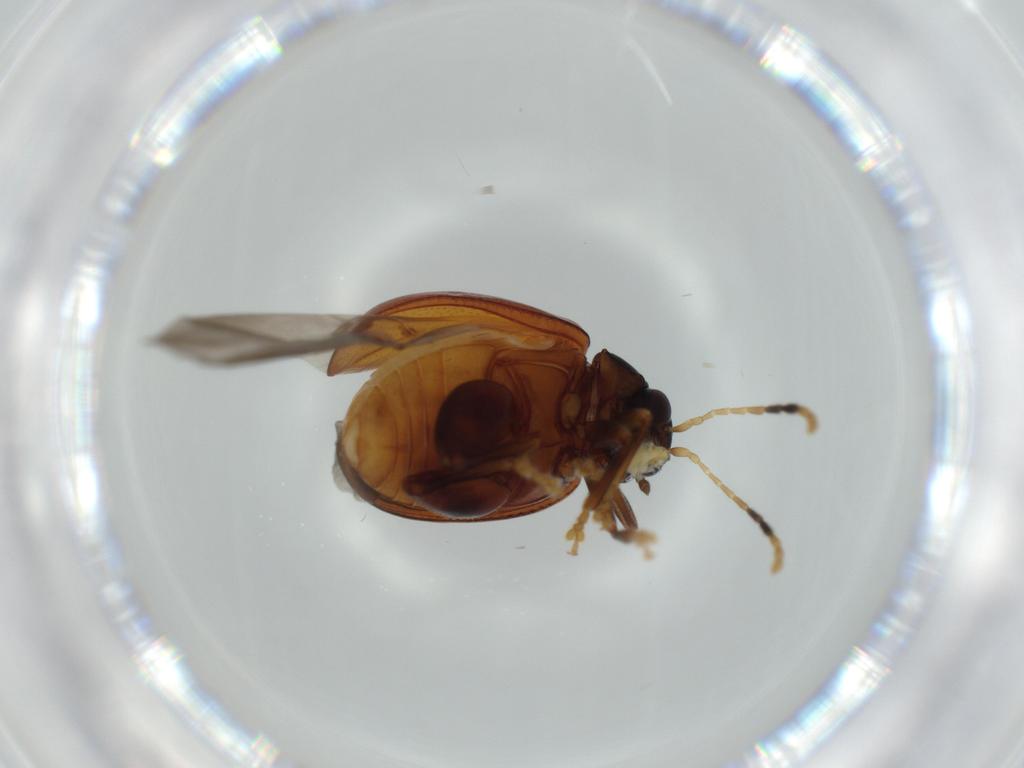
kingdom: Animalia
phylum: Arthropoda
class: Insecta
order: Coleoptera
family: Chrysomelidae
